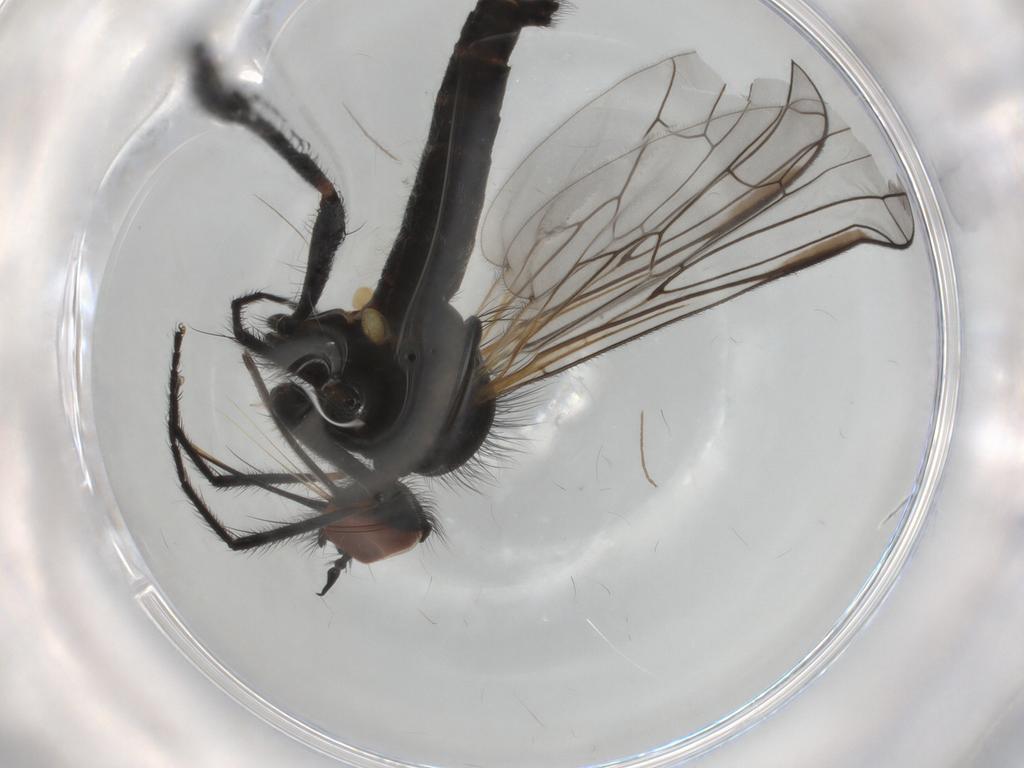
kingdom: Animalia
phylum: Arthropoda
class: Insecta
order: Diptera
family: Empididae
